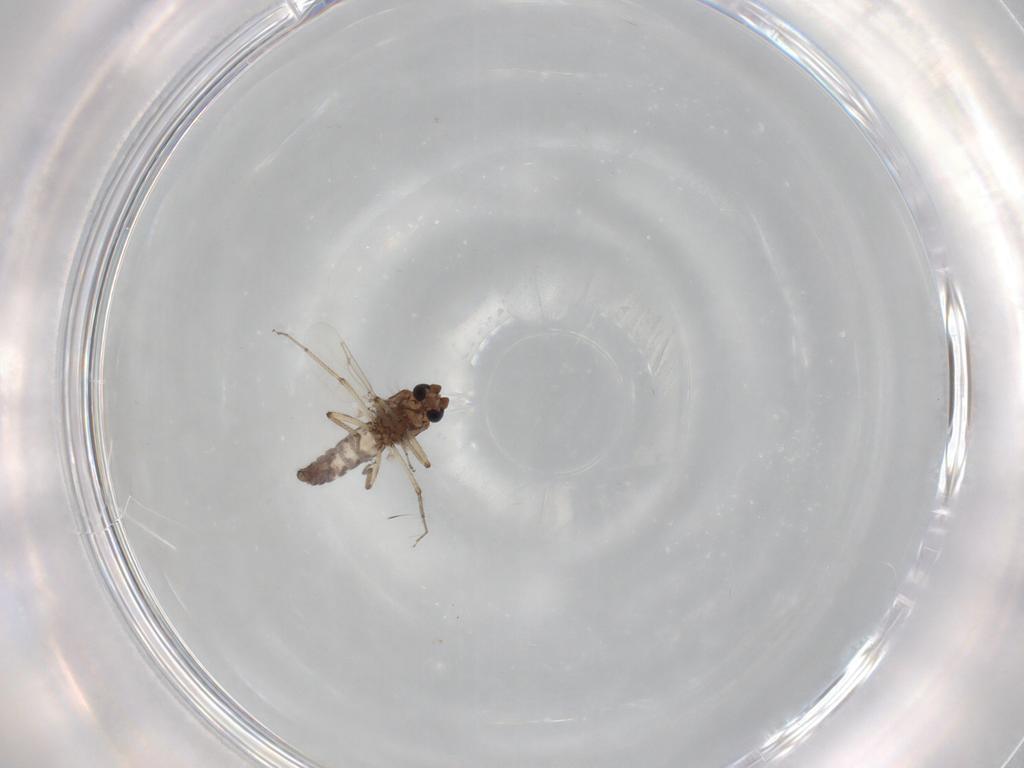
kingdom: Animalia
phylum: Arthropoda
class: Insecta
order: Diptera
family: Ceratopogonidae
